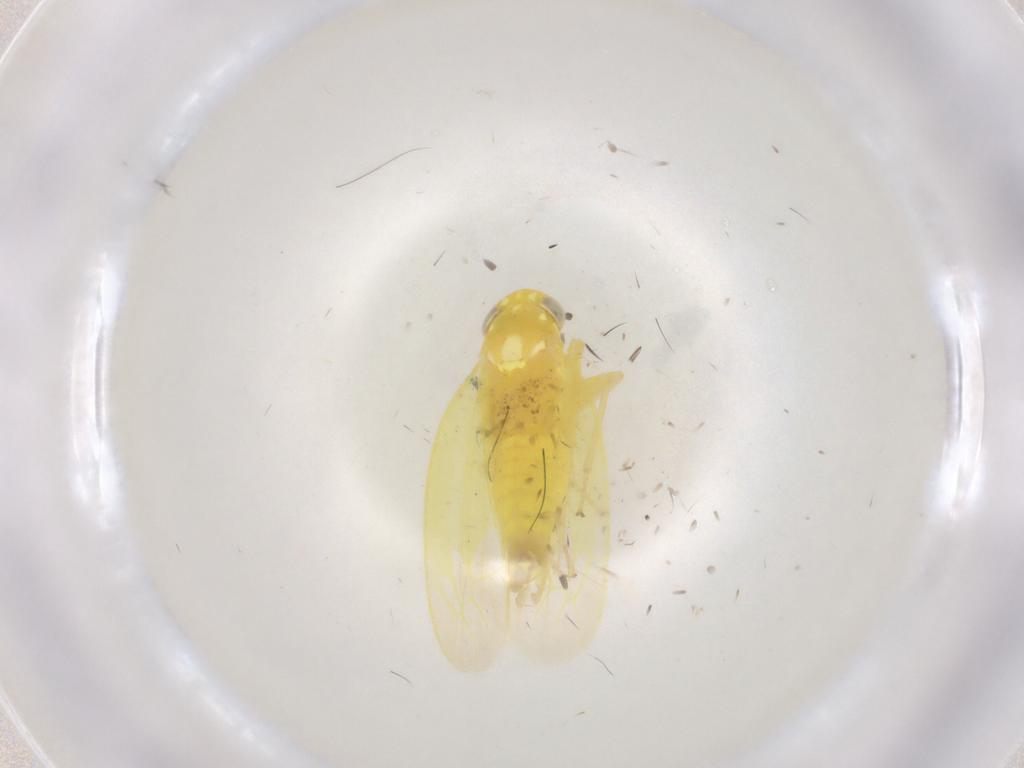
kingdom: Animalia
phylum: Arthropoda
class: Insecta
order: Hemiptera
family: Cicadellidae
